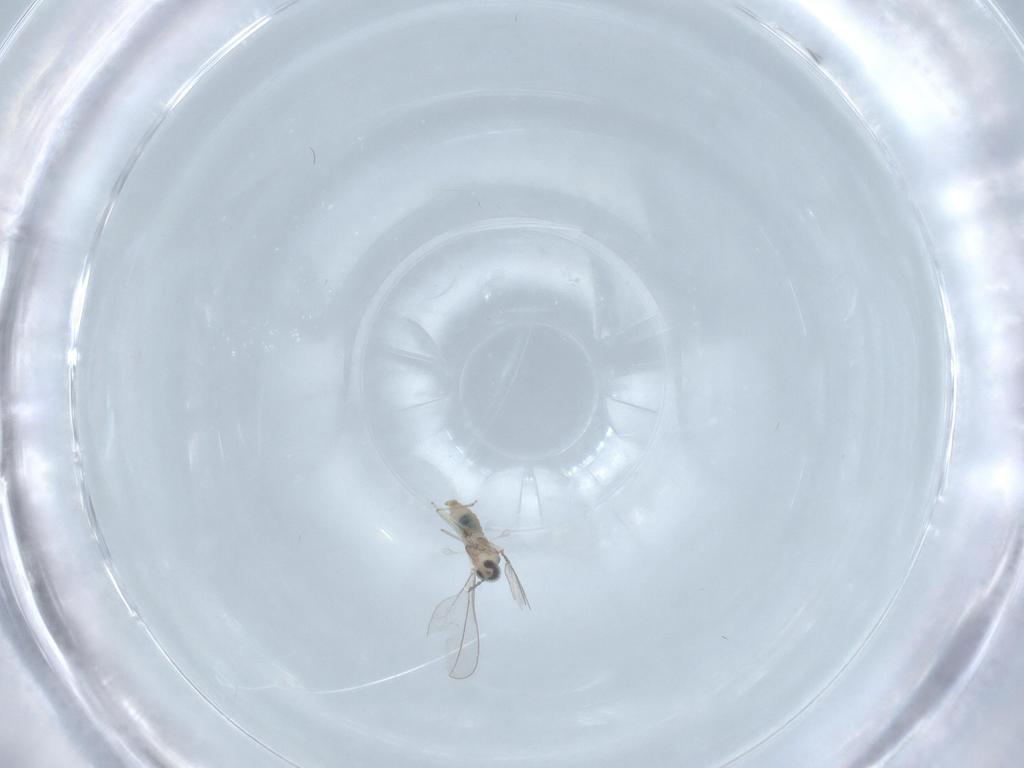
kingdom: Animalia
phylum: Arthropoda
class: Insecta
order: Diptera
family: Cecidomyiidae
